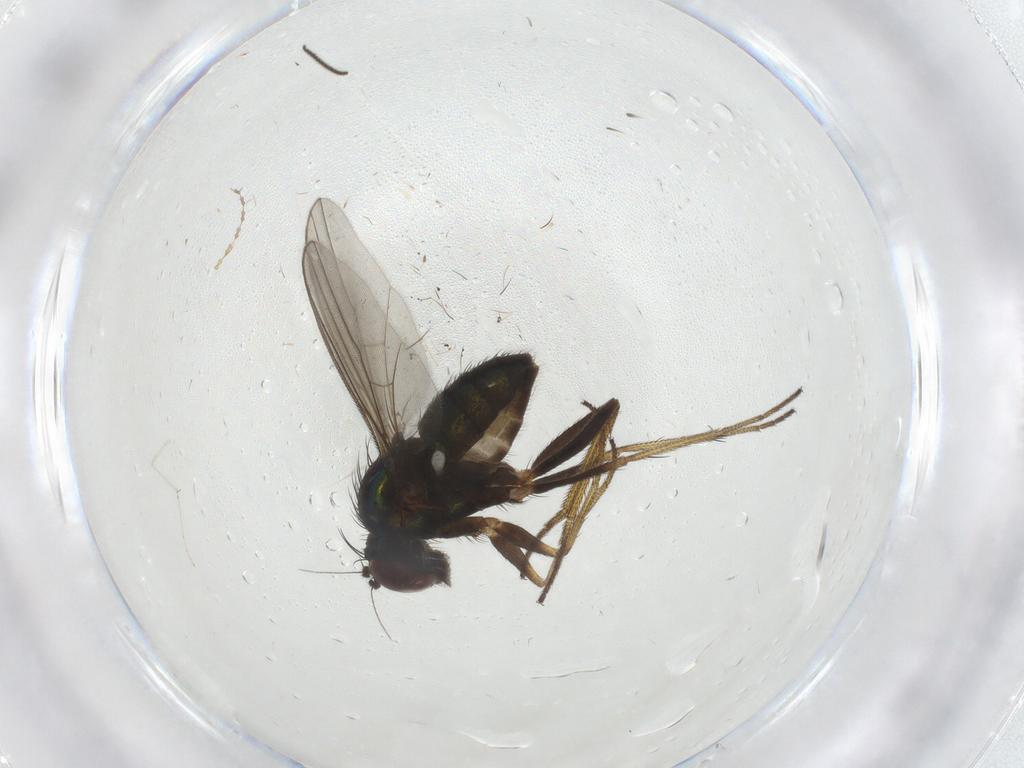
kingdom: Animalia
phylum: Arthropoda
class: Insecta
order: Diptera
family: Dolichopodidae
